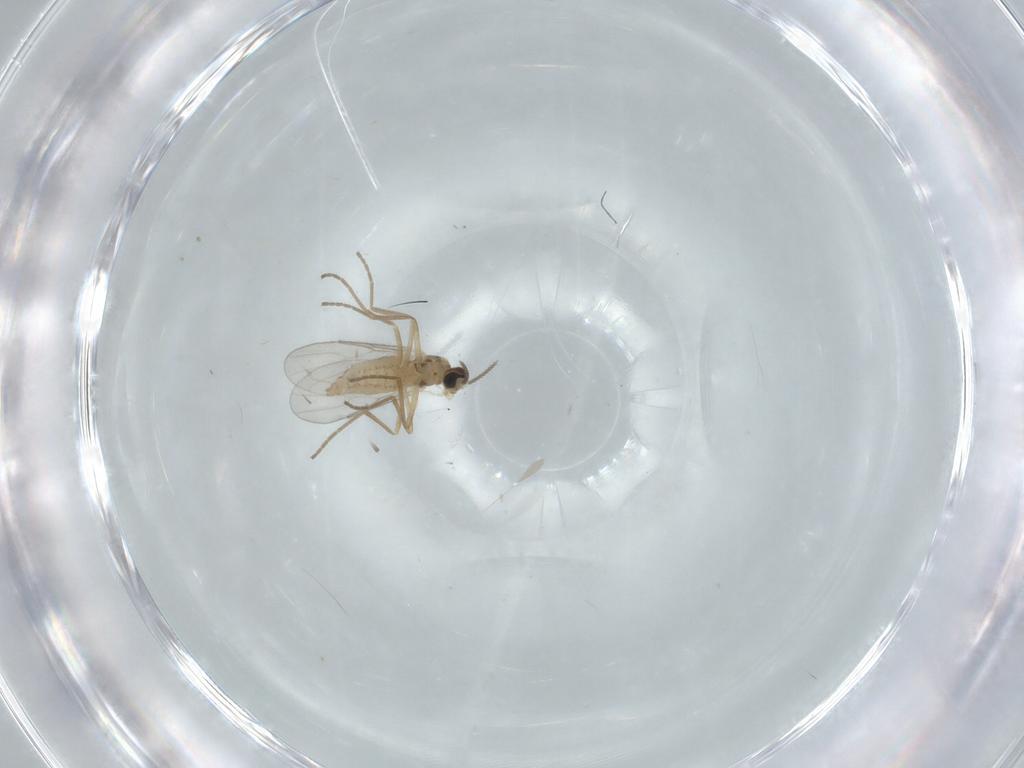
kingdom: Animalia
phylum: Arthropoda
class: Insecta
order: Diptera
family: Cecidomyiidae
